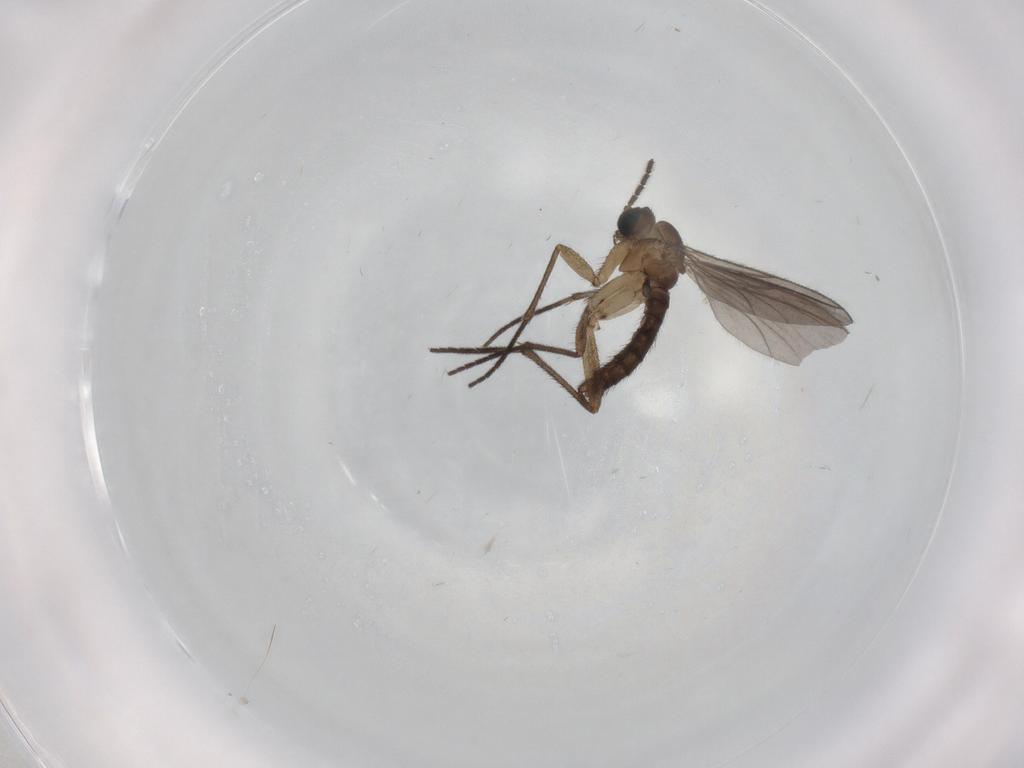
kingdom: Animalia
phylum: Arthropoda
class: Insecta
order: Diptera
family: Sciaridae
